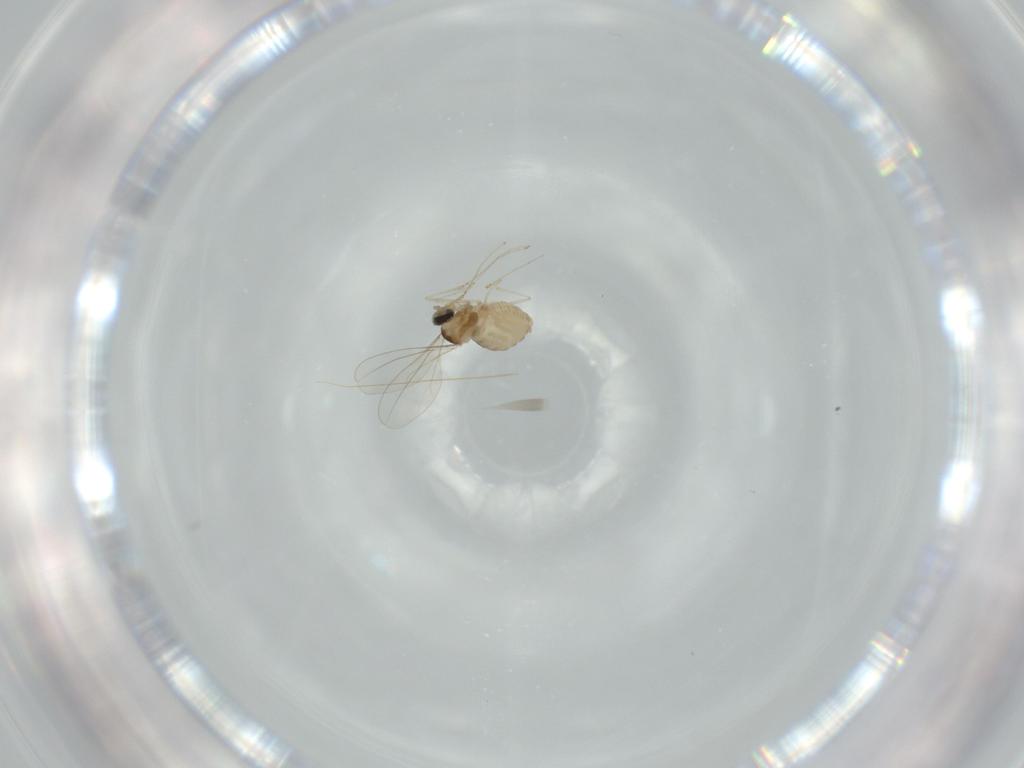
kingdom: Animalia
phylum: Arthropoda
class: Insecta
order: Diptera
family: Cecidomyiidae
